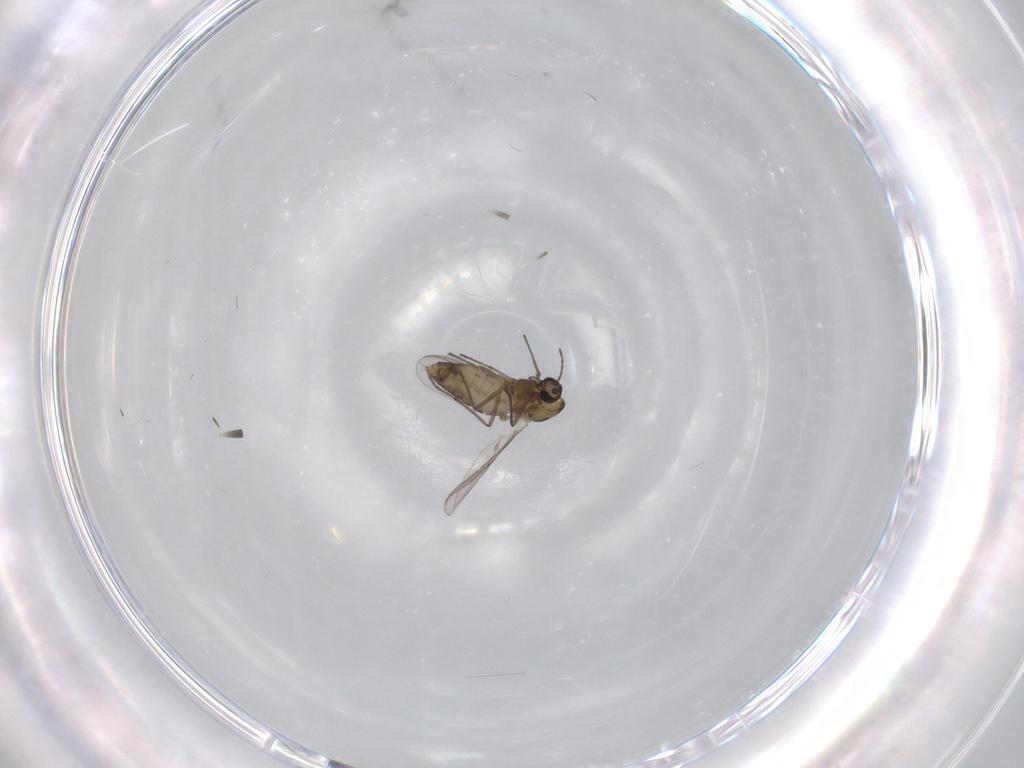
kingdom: Animalia
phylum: Arthropoda
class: Insecta
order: Diptera
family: Chironomidae
